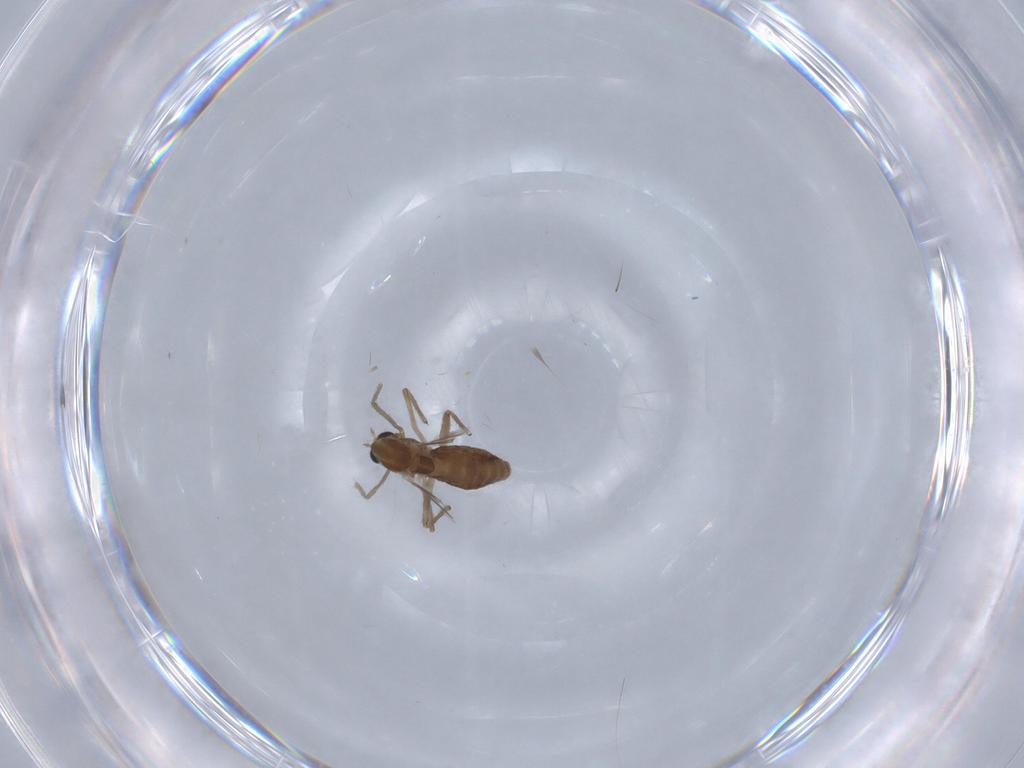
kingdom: Animalia
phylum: Arthropoda
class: Insecta
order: Diptera
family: Chironomidae
